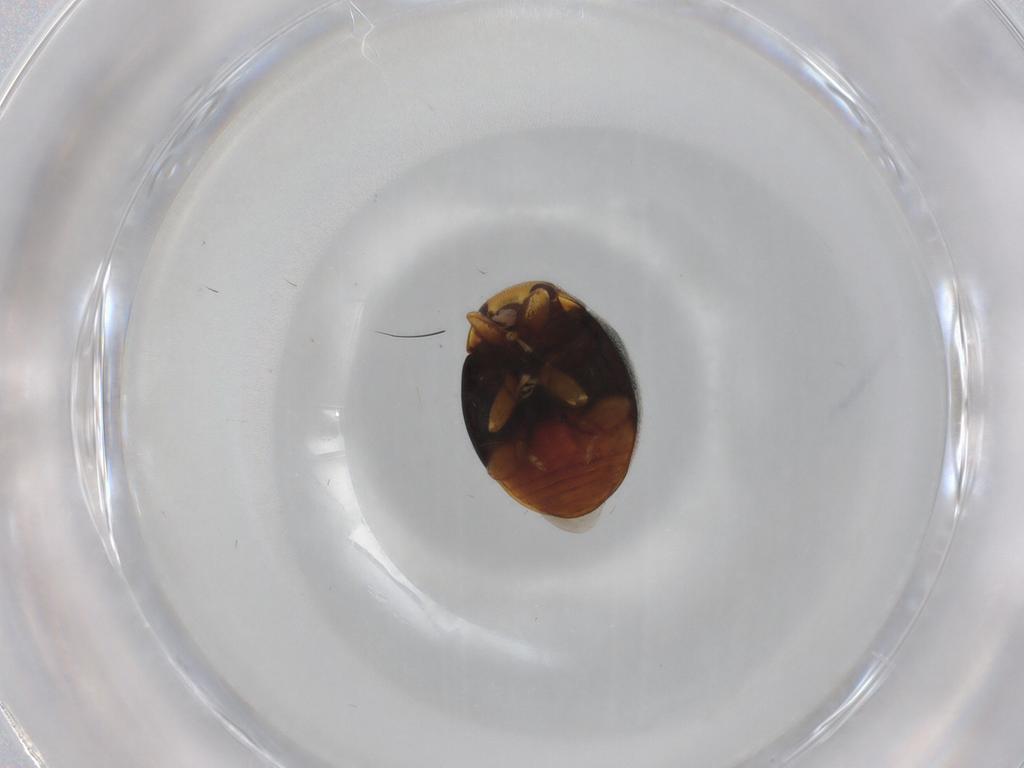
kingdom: Animalia
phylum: Arthropoda
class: Insecta
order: Coleoptera
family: Coccinellidae
